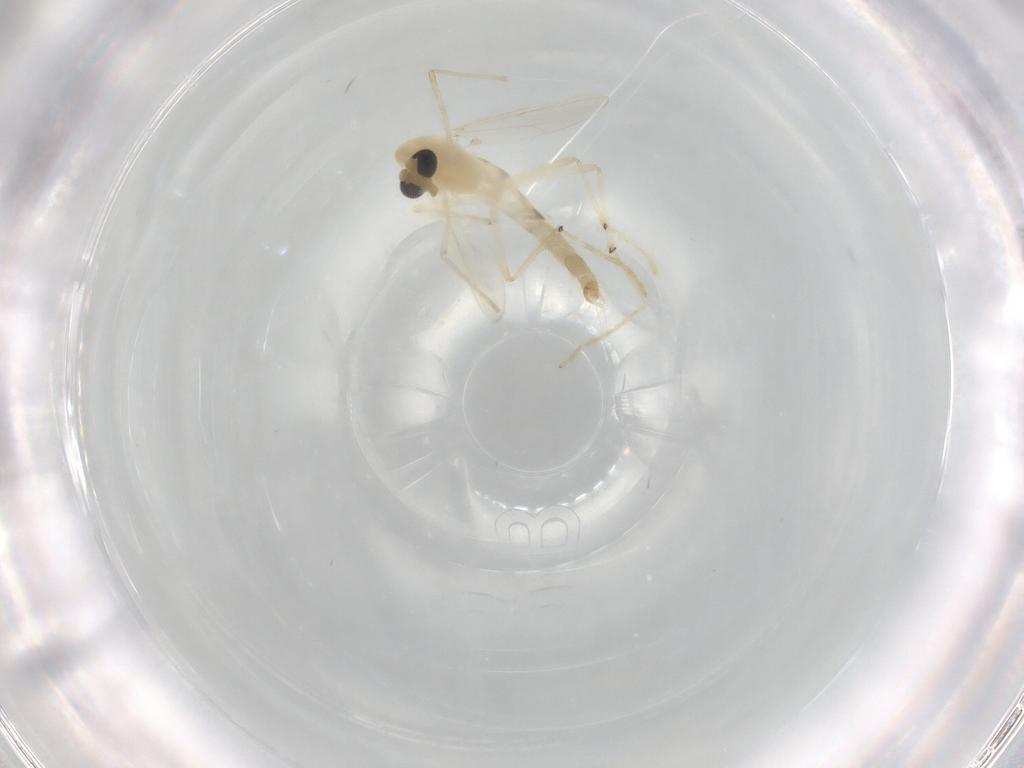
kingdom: Animalia
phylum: Arthropoda
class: Insecta
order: Diptera
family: Chironomidae
